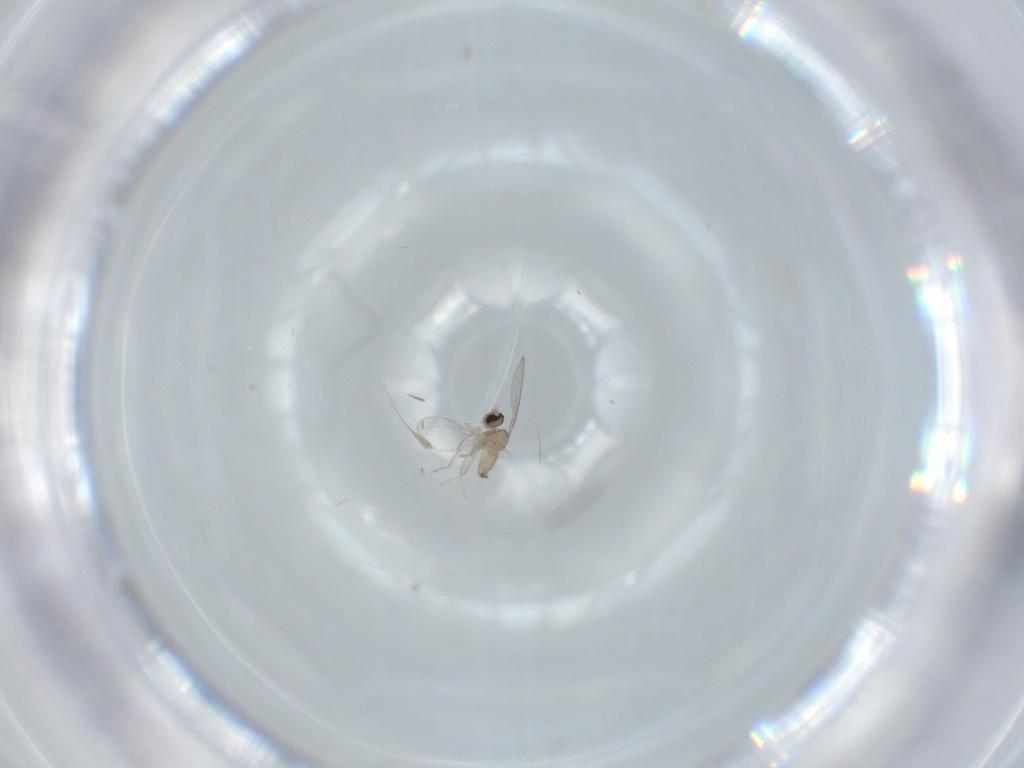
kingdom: Animalia
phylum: Arthropoda
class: Insecta
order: Diptera
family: Cecidomyiidae
